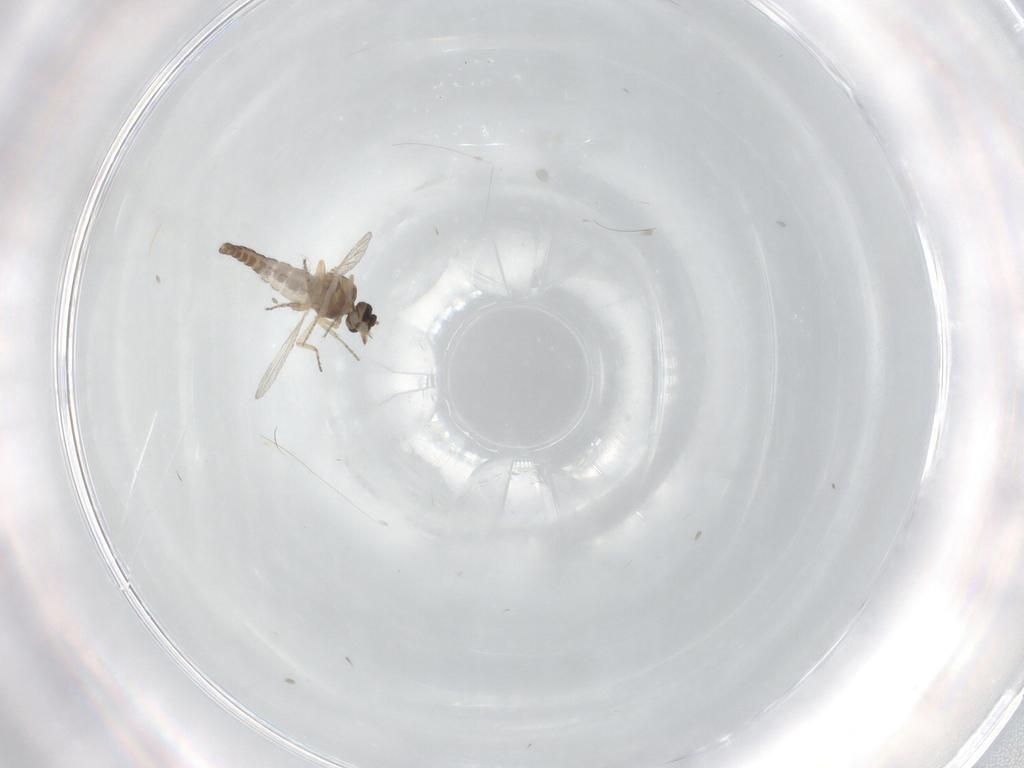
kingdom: Animalia
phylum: Arthropoda
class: Insecta
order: Diptera
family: Ceratopogonidae
